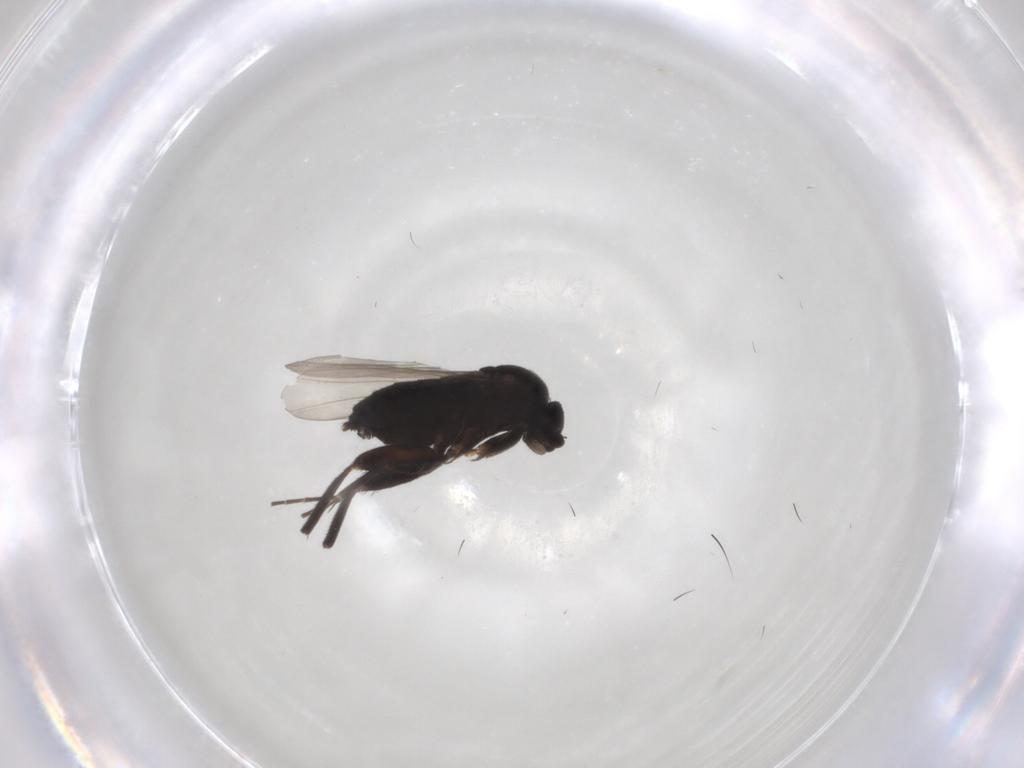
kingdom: Animalia
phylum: Arthropoda
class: Insecta
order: Diptera
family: Phoridae
